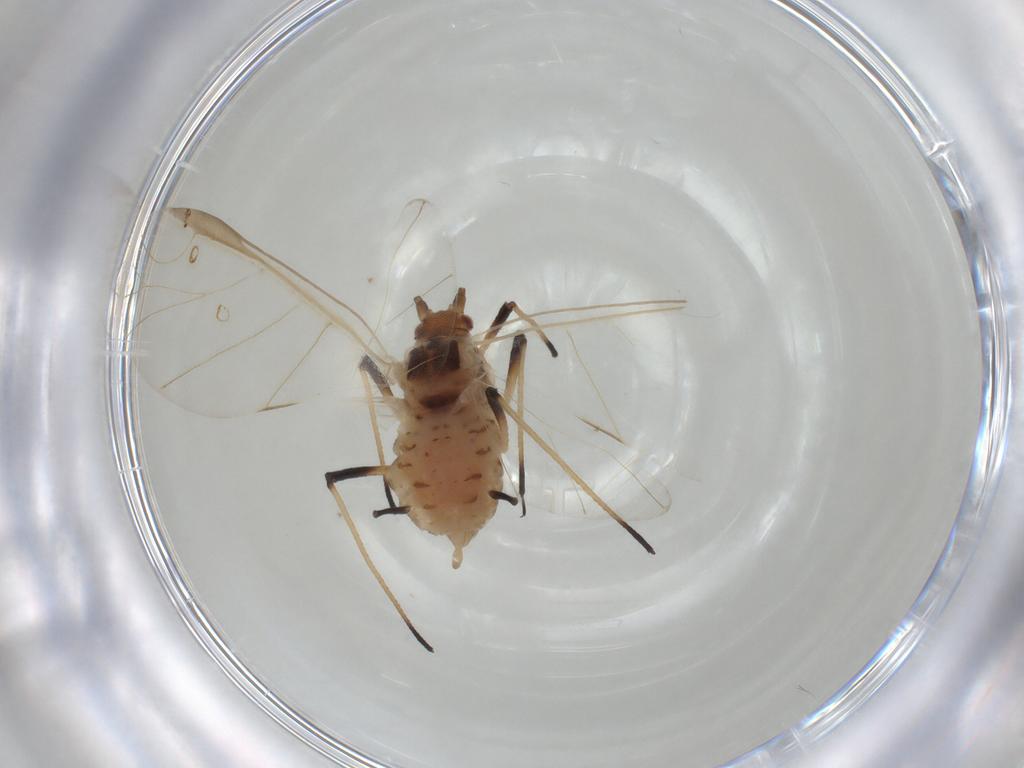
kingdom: Animalia
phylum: Arthropoda
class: Insecta
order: Hemiptera
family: Aphididae
